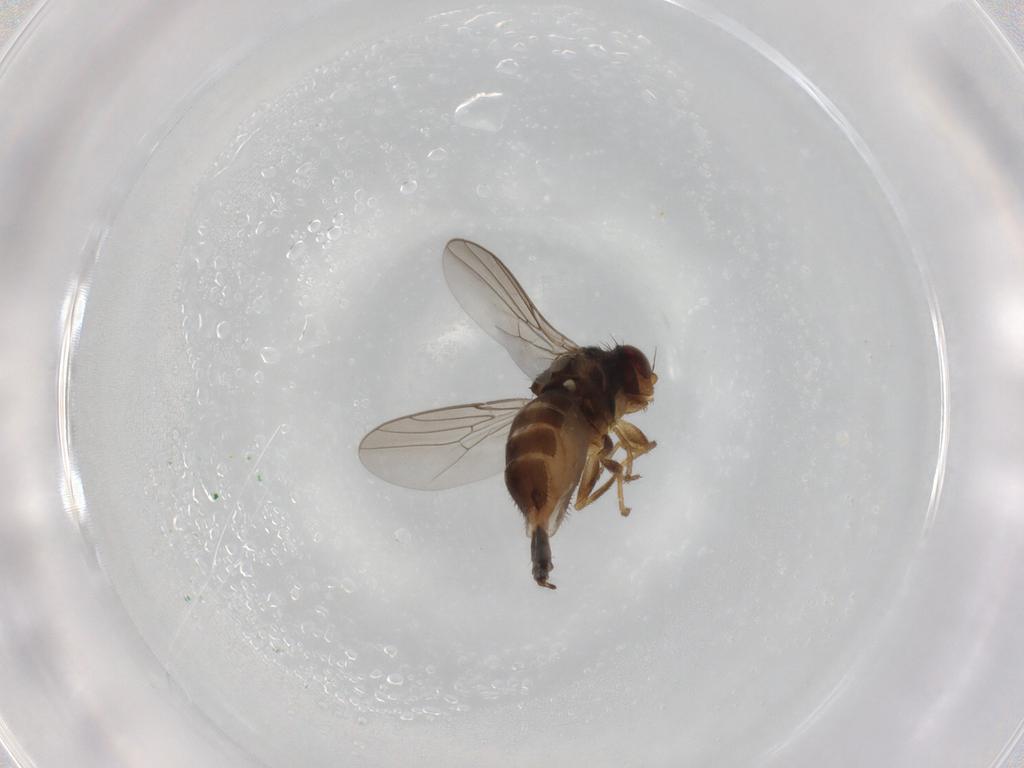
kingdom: Animalia
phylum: Arthropoda
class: Insecta
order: Diptera
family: Chloropidae
